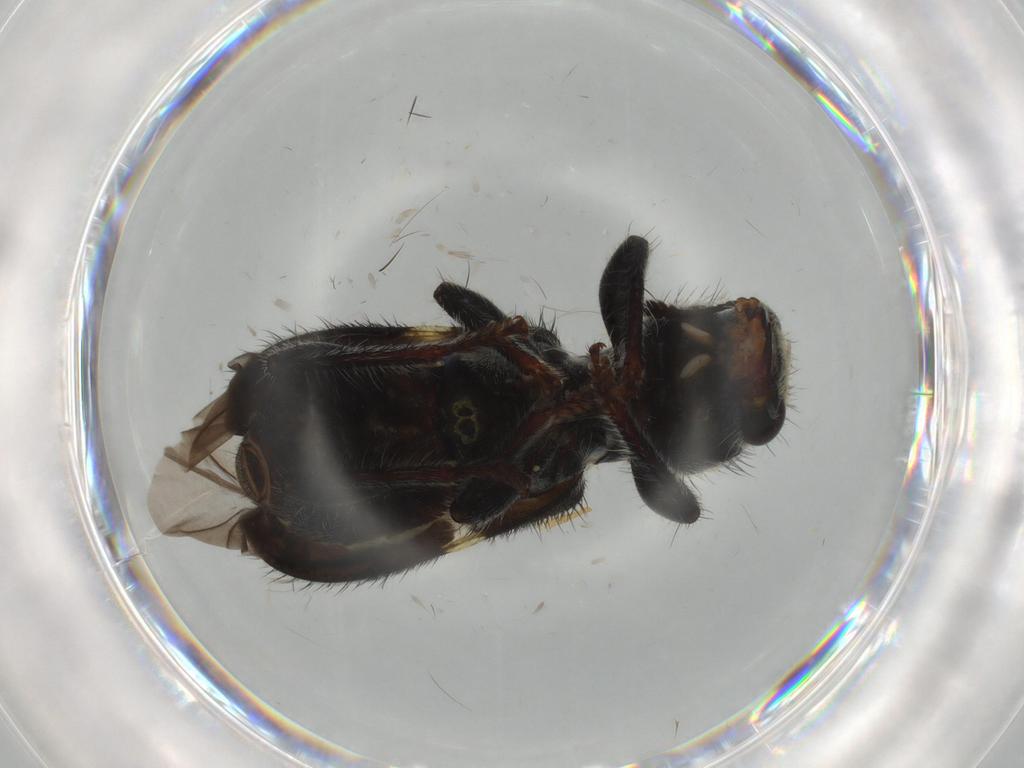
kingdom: Animalia
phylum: Arthropoda
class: Insecta
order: Coleoptera
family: Cleridae
